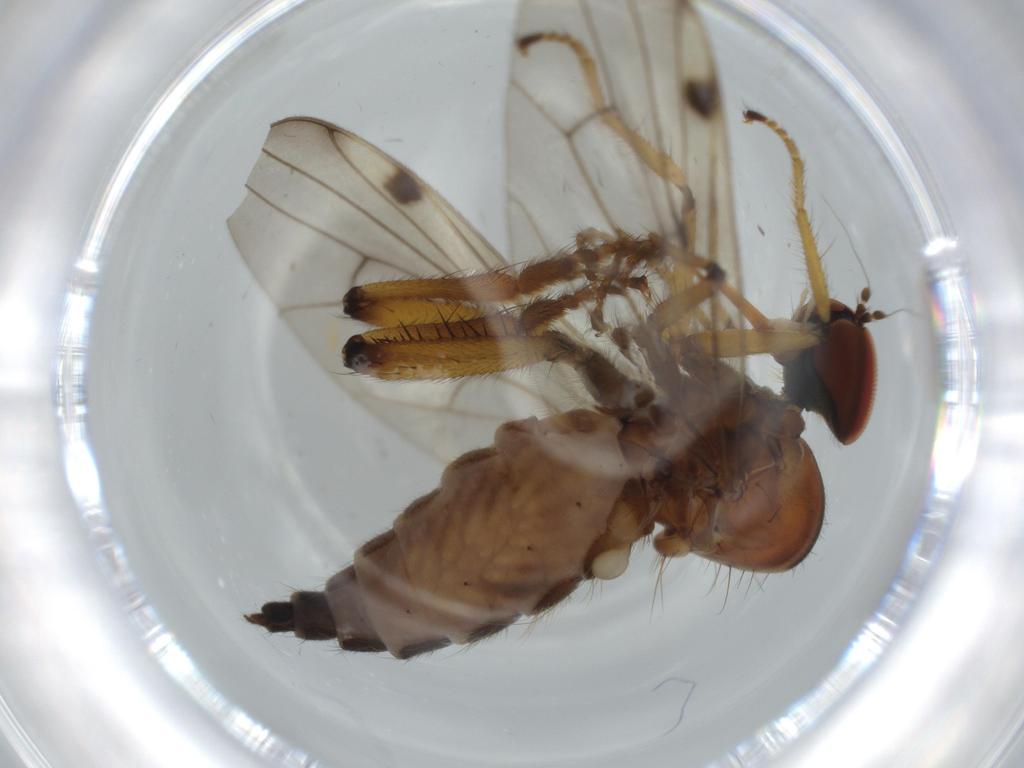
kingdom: Animalia
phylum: Arthropoda
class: Insecta
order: Diptera
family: Hybotidae
